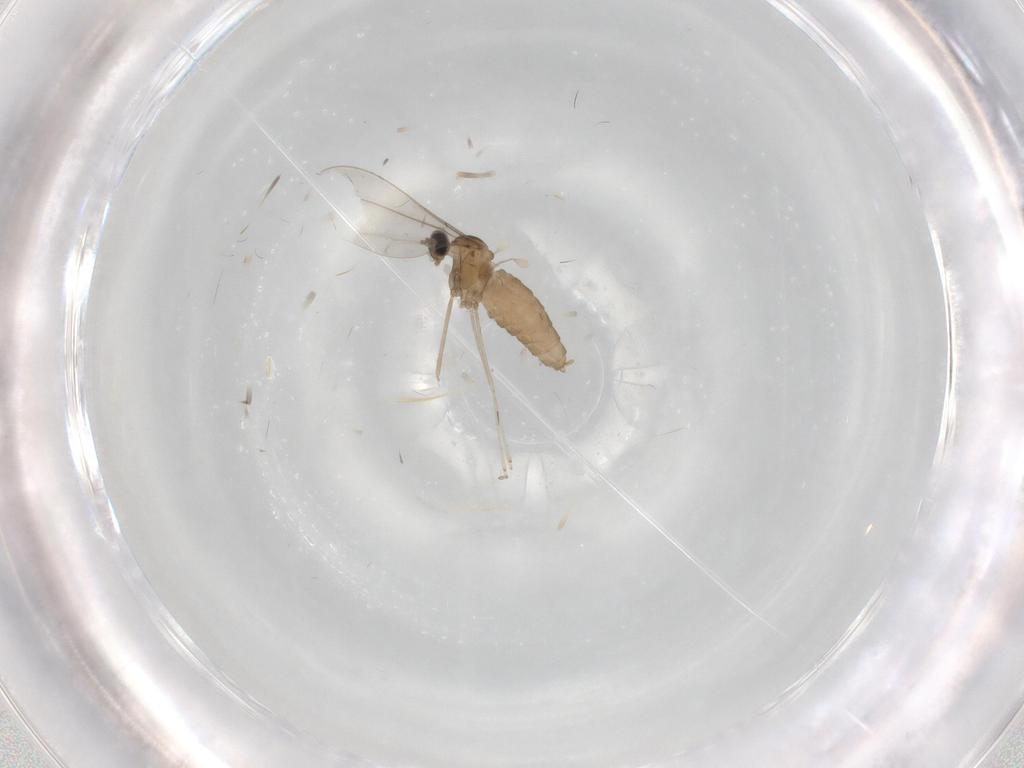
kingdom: Animalia
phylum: Arthropoda
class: Insecta
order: Diptera
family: Cecidomyiidae
